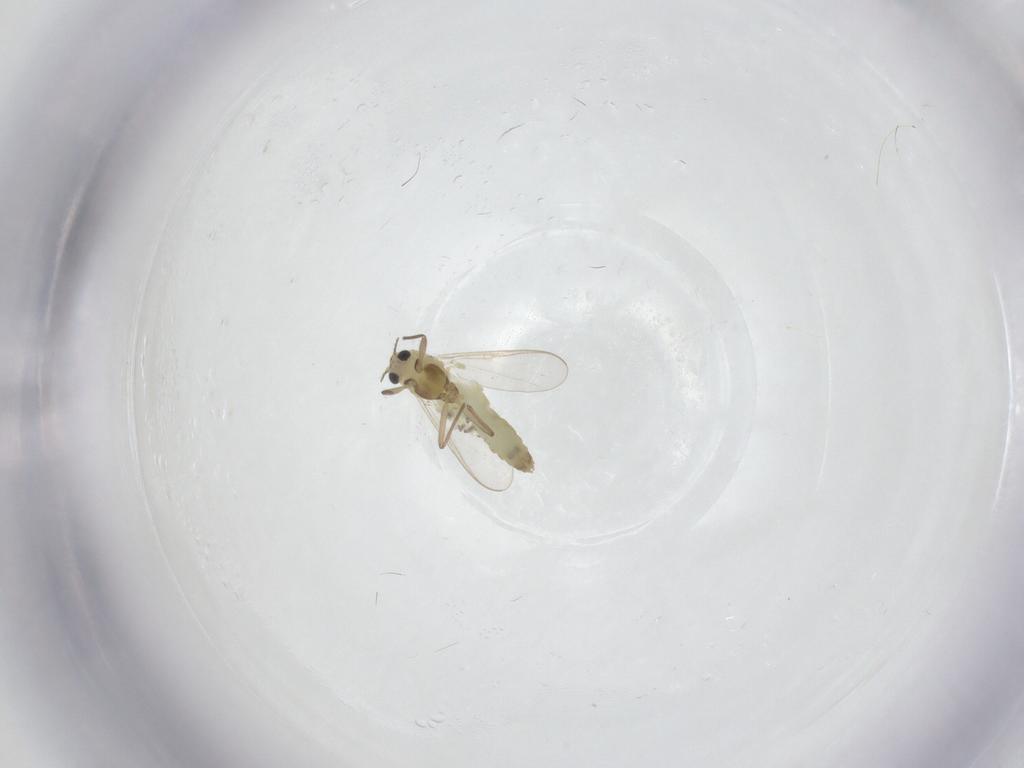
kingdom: Animalia
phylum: Arthropoda
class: Insecta
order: Diptera
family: Chironomidae
